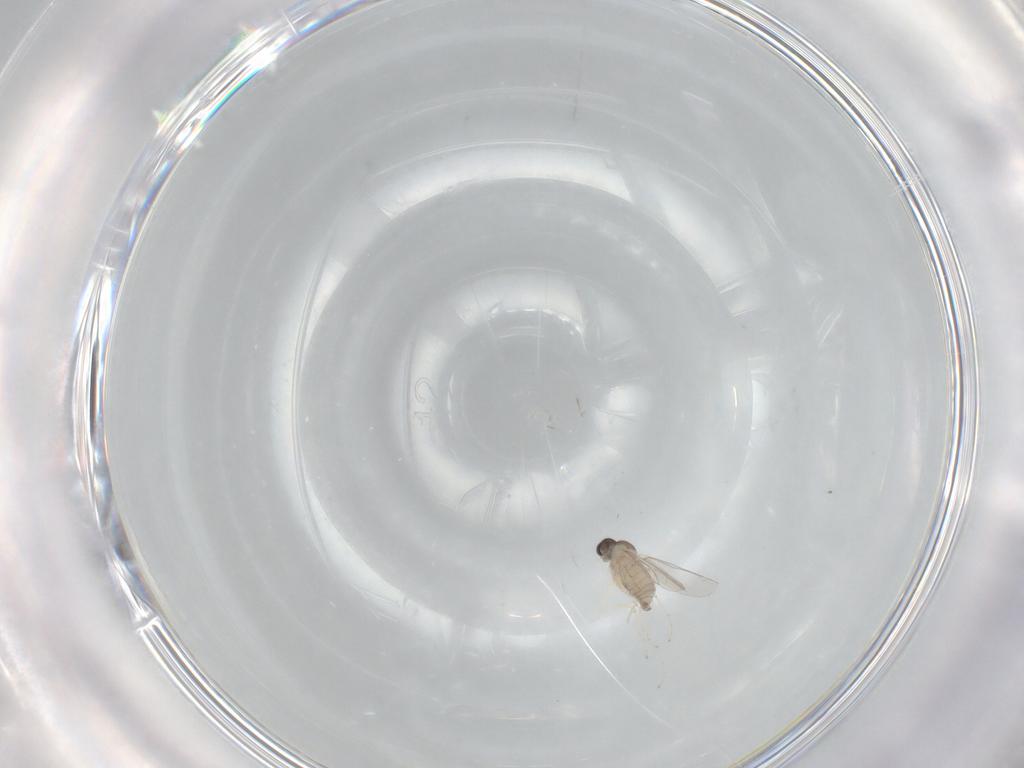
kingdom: Animalia
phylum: Arthropoda
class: Insecta
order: Diptera
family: Cecidomyiidae
